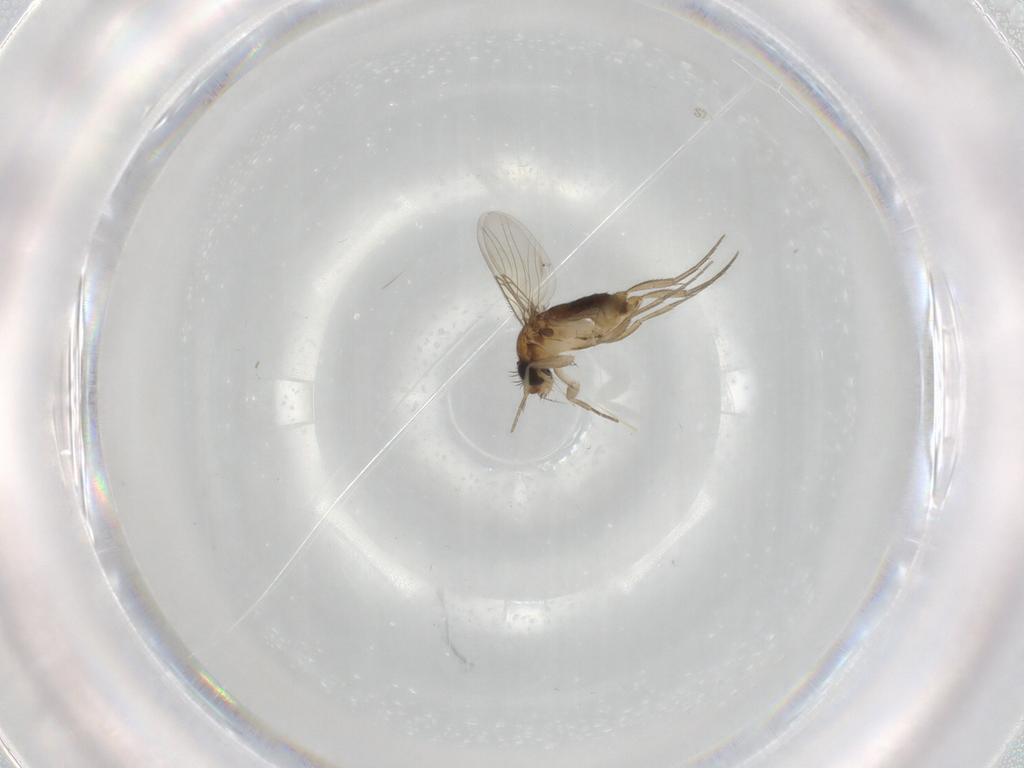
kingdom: Animalia
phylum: Arthropoda
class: Insecta
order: Diptera
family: Phoridae
